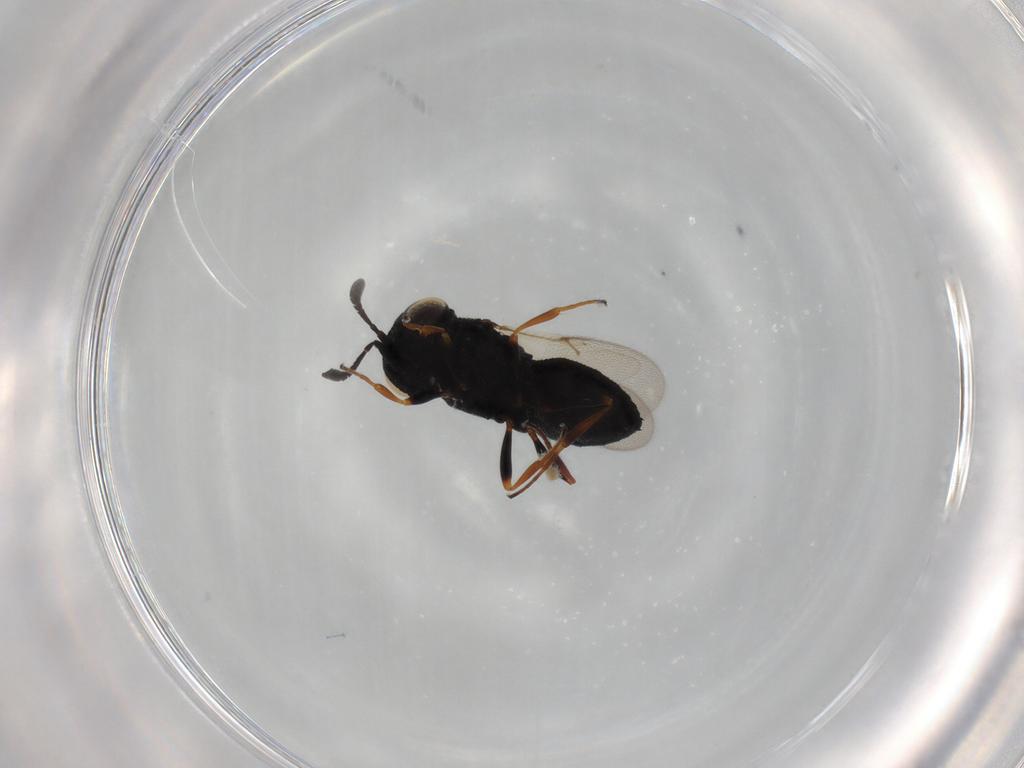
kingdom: Animalia
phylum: Arthropoda
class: Insecta
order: Hymenoptera
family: Scelionidae
